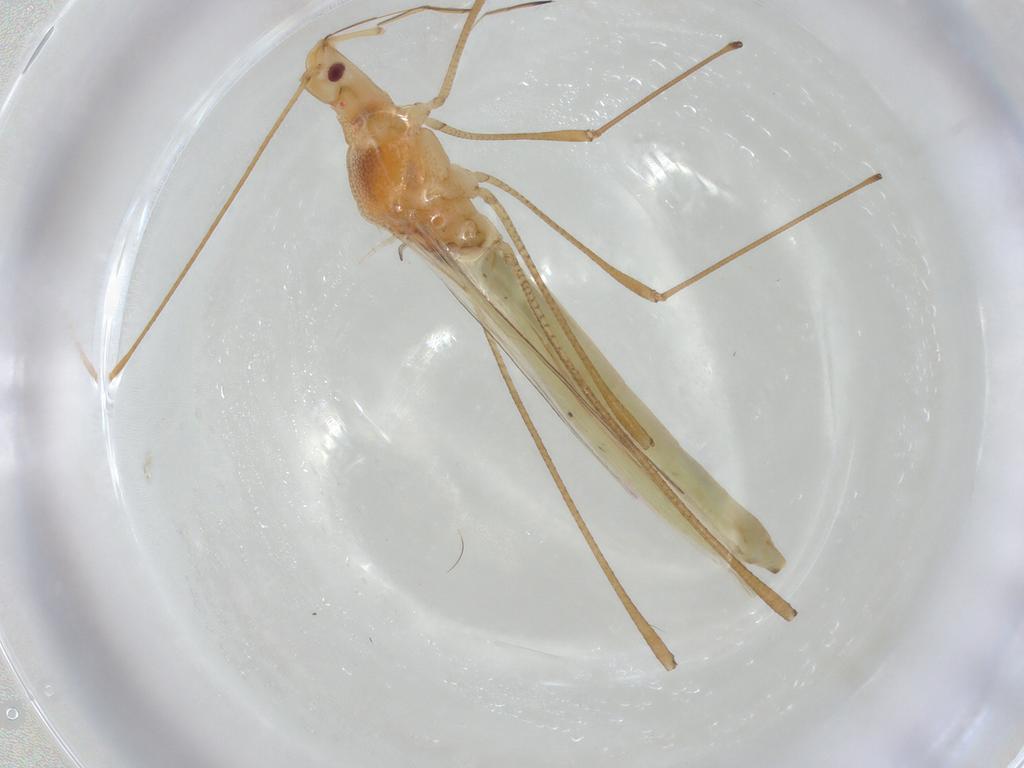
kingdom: Animalia
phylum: Arthropoda
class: Insecta
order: Hemiptera
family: Berytidae
